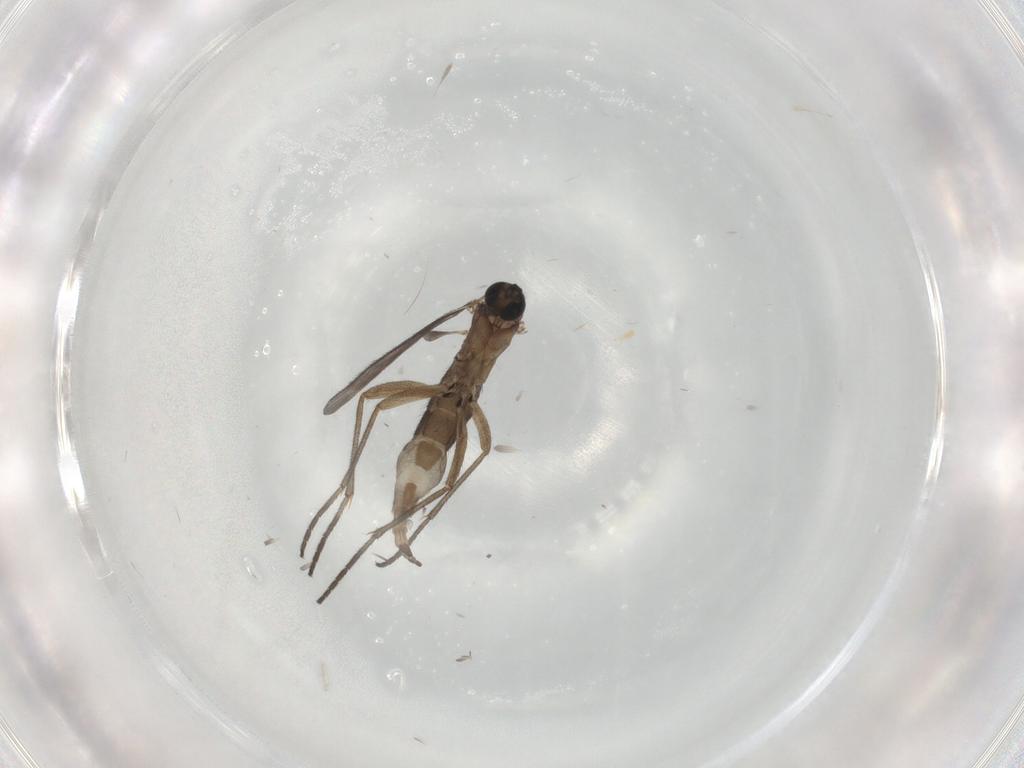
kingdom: Animalia
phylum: Arthropoda
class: Insecta
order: Diptera
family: Sciaridae
